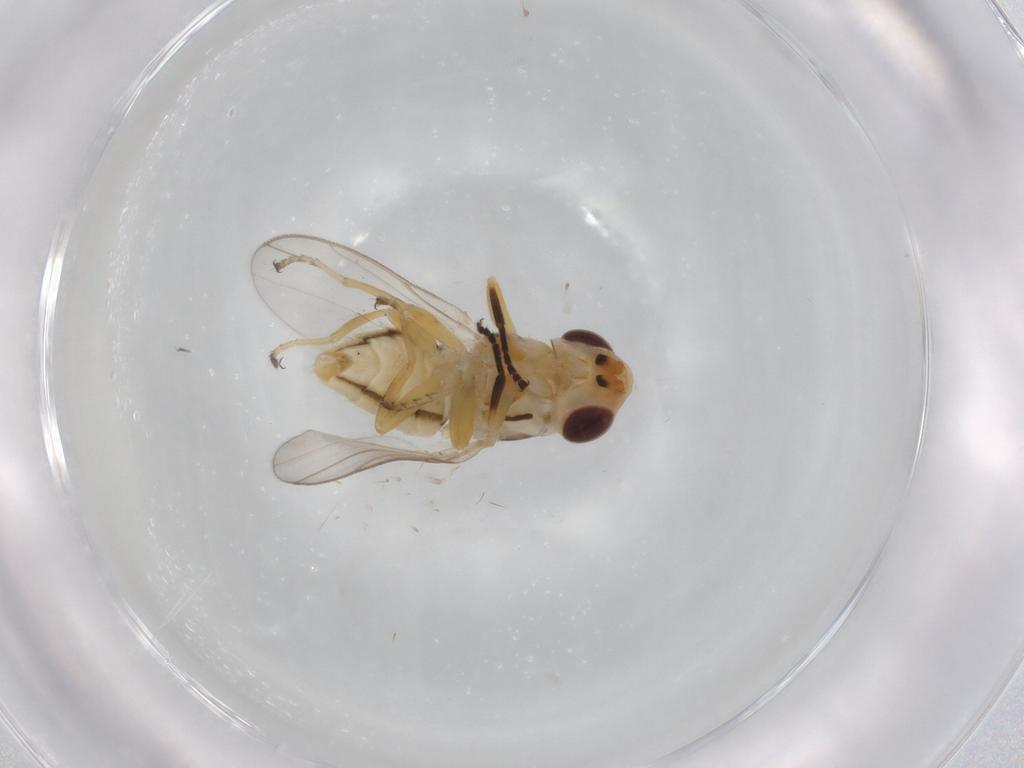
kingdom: Animalia
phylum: Arthropoda
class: Insecta
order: Diptera
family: Chloropidae
